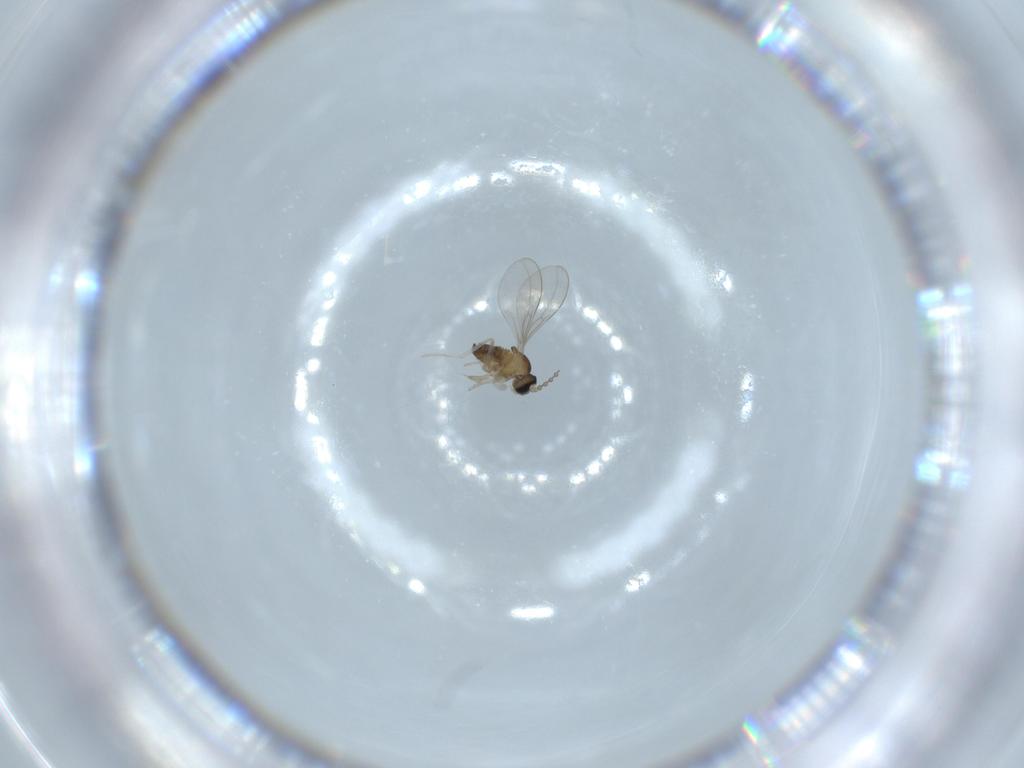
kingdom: Animalia
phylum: Arthropoda
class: Insecta
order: Diptera
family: Cecidomyiidae
